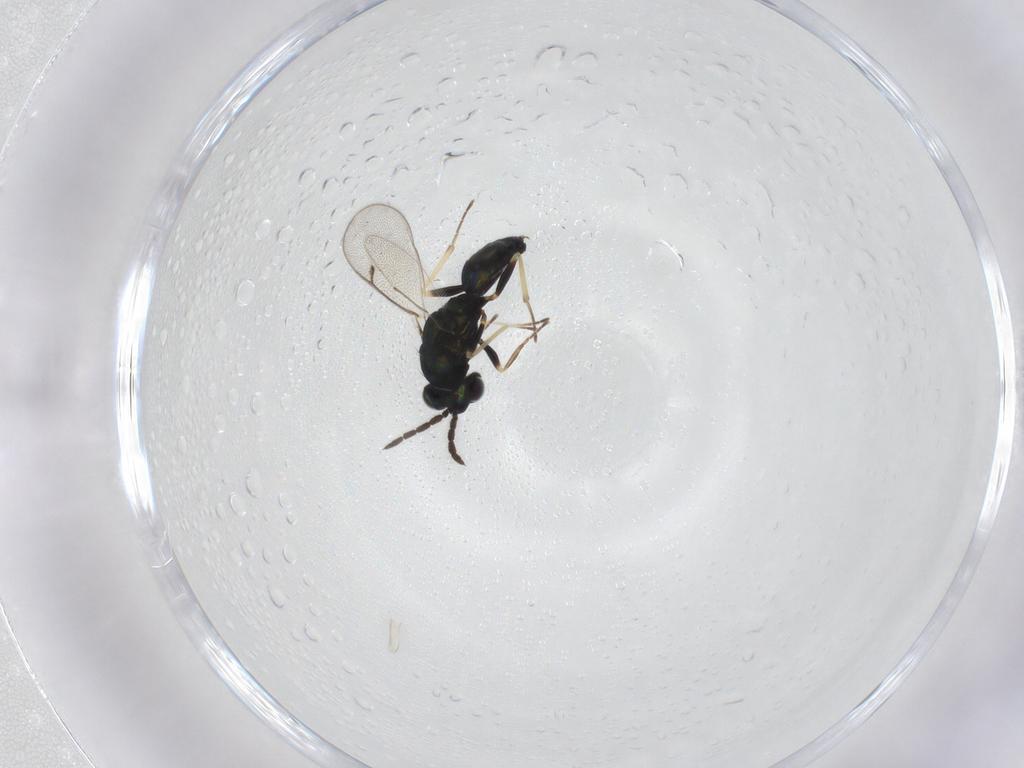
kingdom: Animalia
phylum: Arthropoda
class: Insecta
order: Hymenoptera
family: Eulophidae
